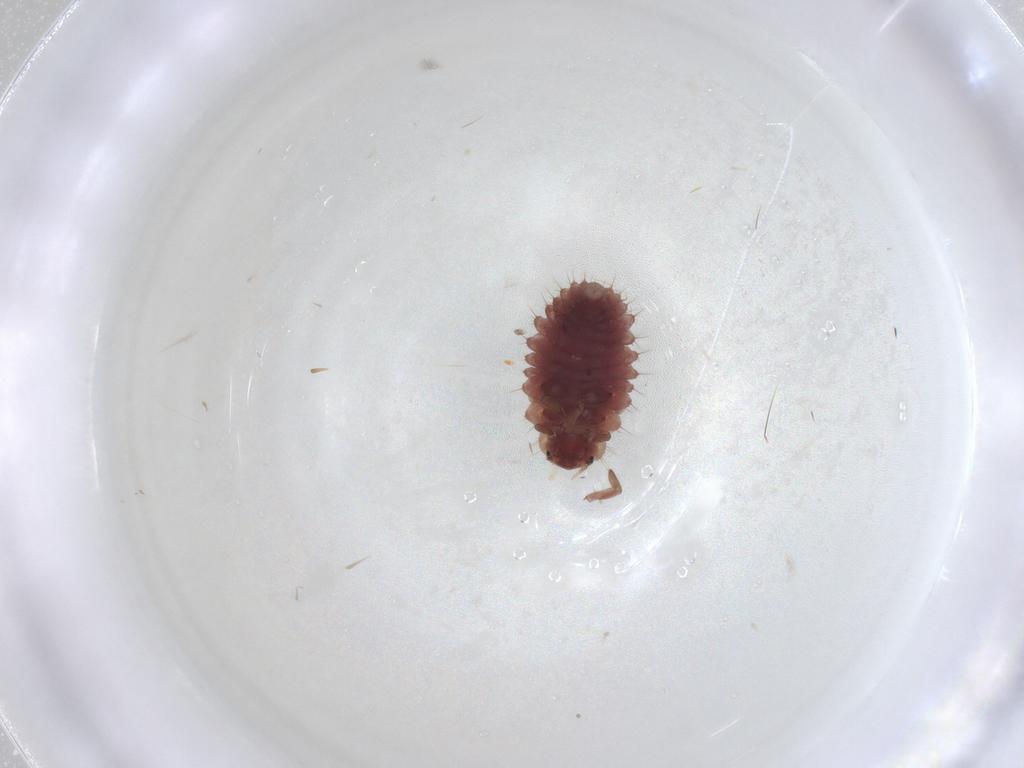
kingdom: Animalia
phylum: Arthropoda
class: Insecta
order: Coleoptera
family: Coccinellidae
